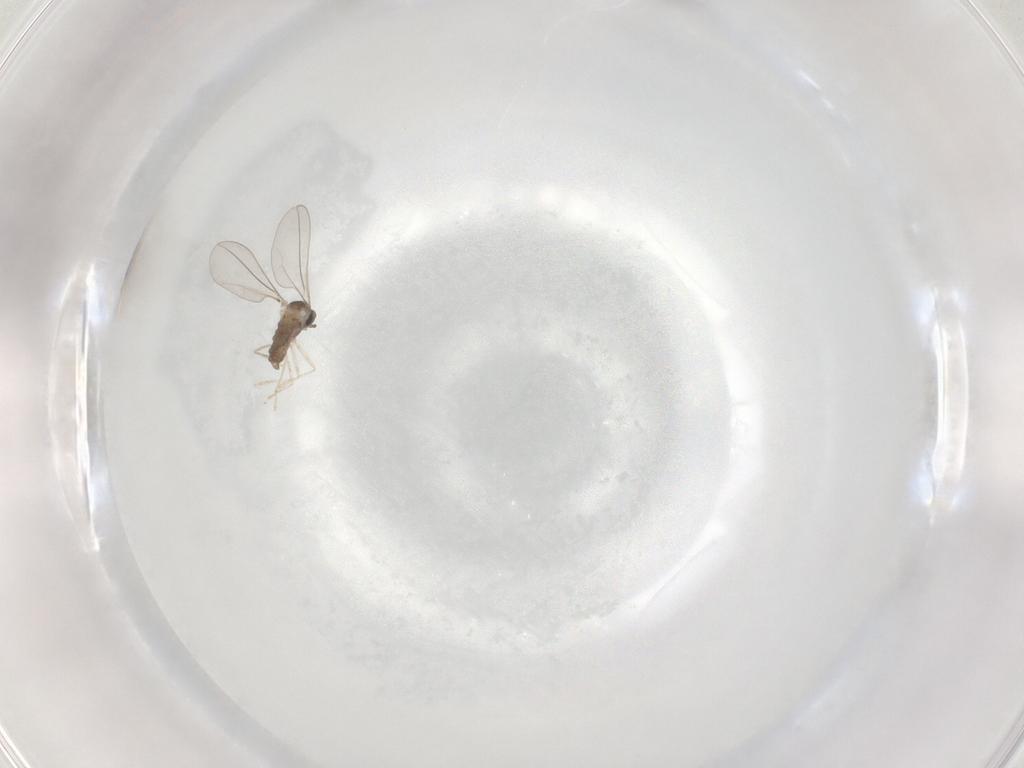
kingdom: Animalia
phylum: Arthropoda
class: Insecta
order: Diptera
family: Cecidomyiidae
